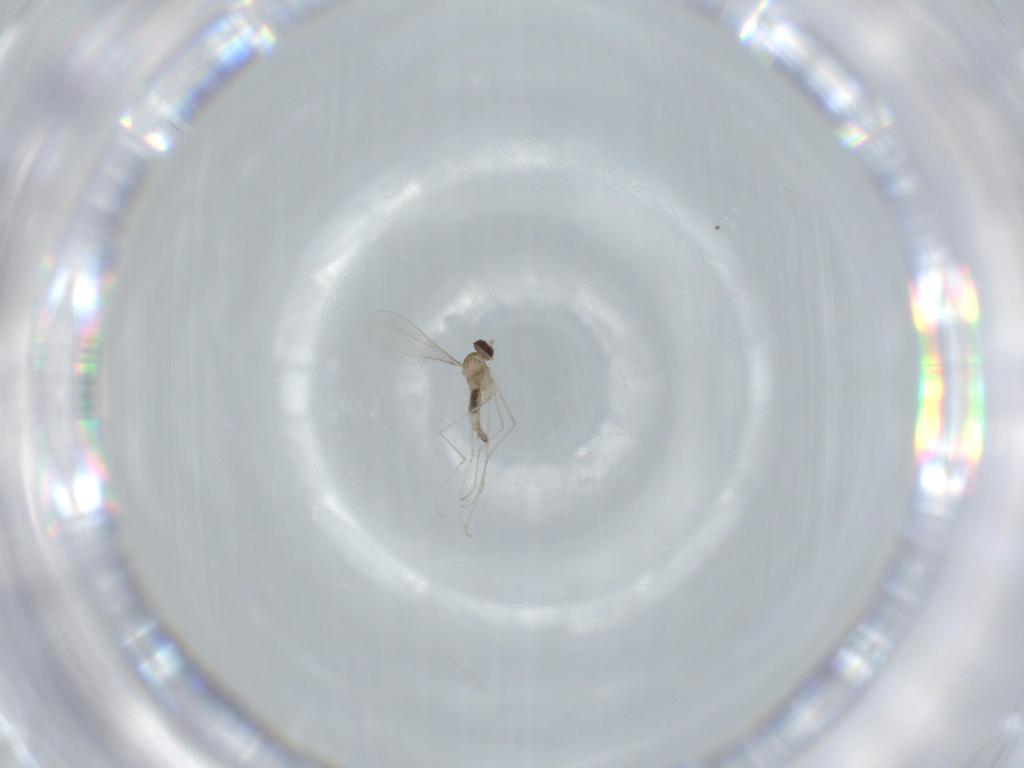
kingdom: Animalia
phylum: Arthropoda
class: Insecta
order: Diptera
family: Cecidomyiidae
